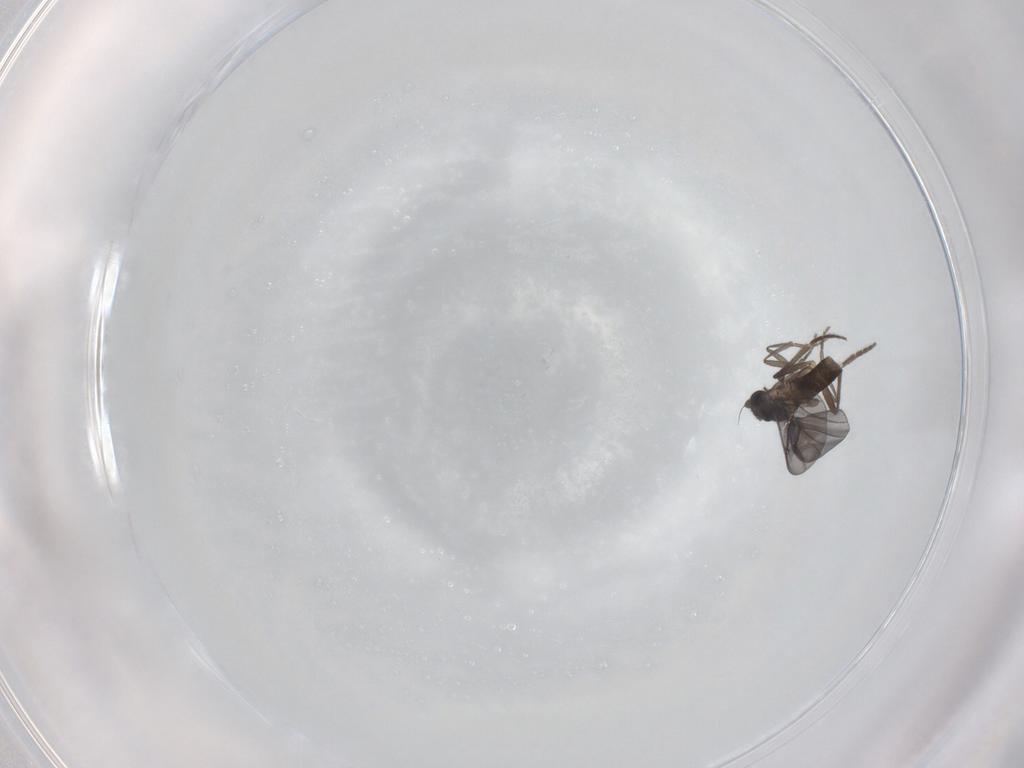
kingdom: Animalia
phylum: Arthropoda
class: Insecta
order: Diptera
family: Phoridae
